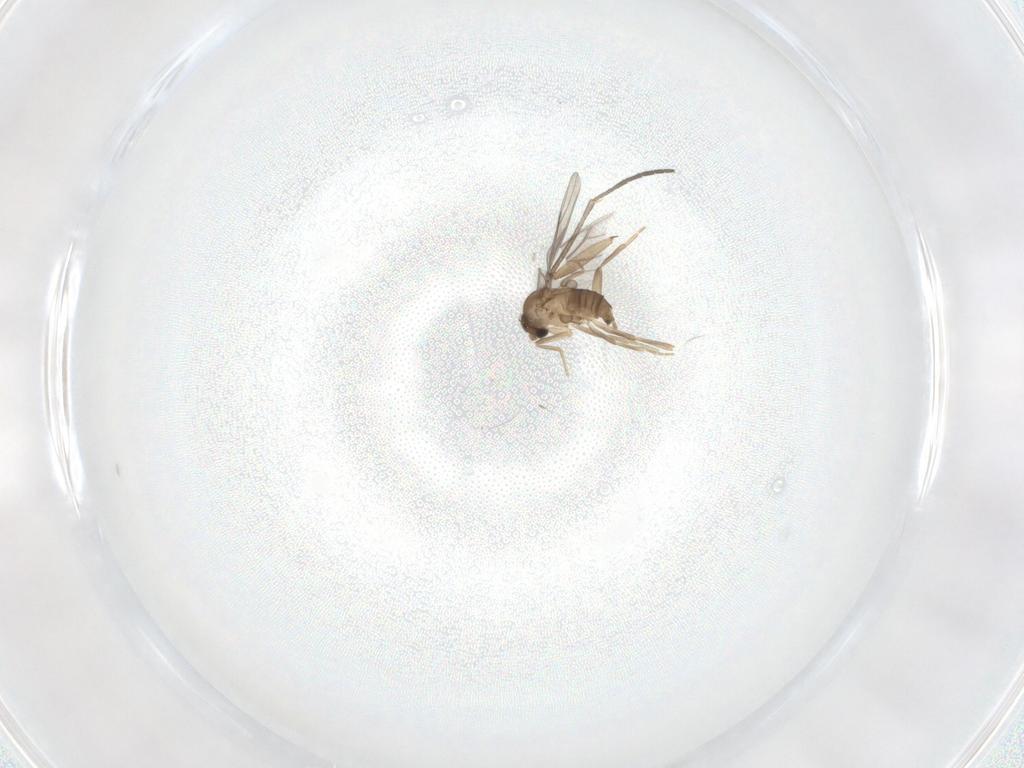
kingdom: Animalia
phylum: Arthropoda
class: Insecta
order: Diptera
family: Sciaridae
